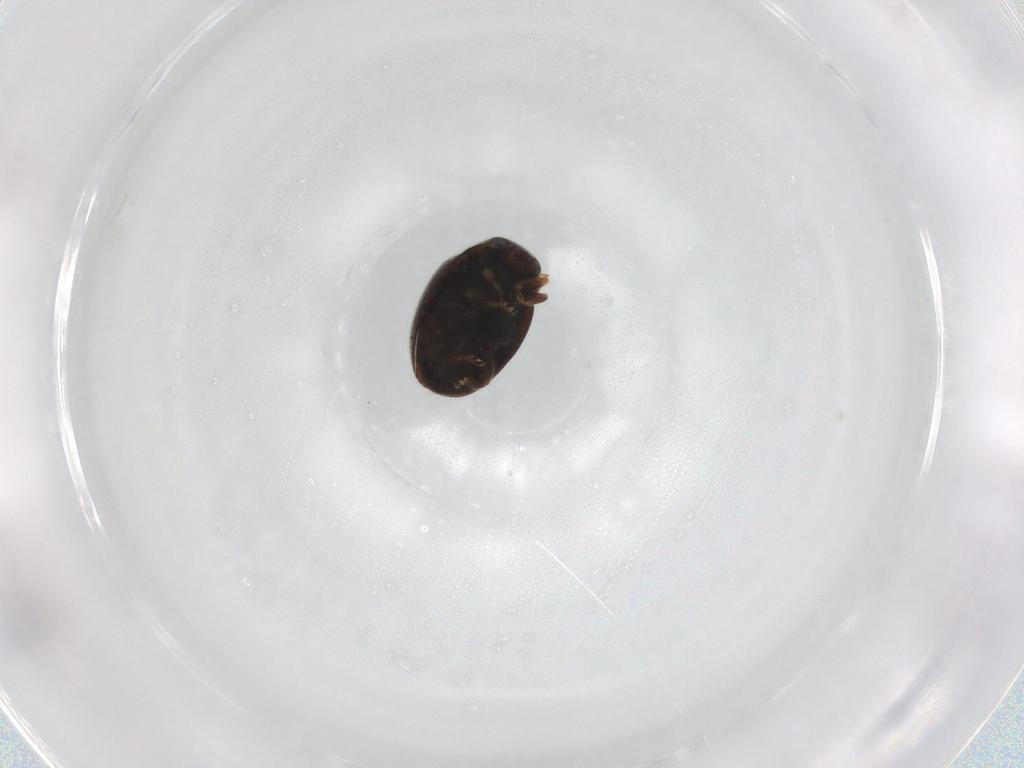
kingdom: Animalia
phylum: Arthropoda
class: Insecta
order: Coleoptera
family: Coccinellidae
